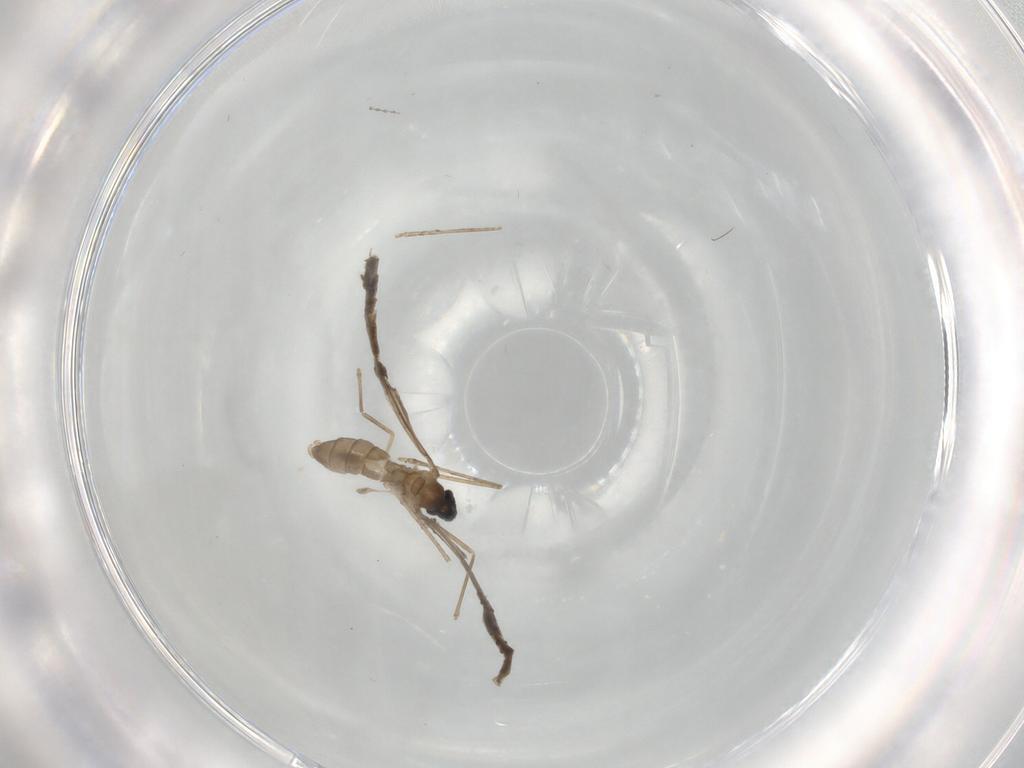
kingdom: Animalia
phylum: Arthropoda
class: Insecta
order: Diptera
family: Cecidomyiidae
